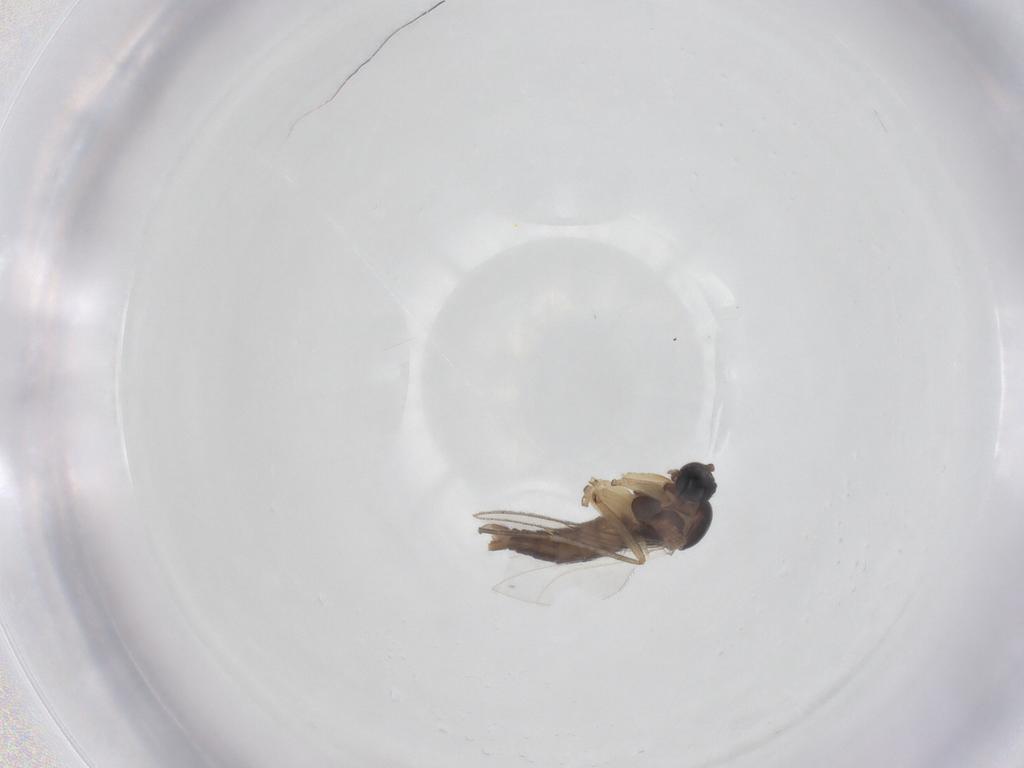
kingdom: Animalia
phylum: Arthropoda
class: Insecta
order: Diptera
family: Sciaridae
